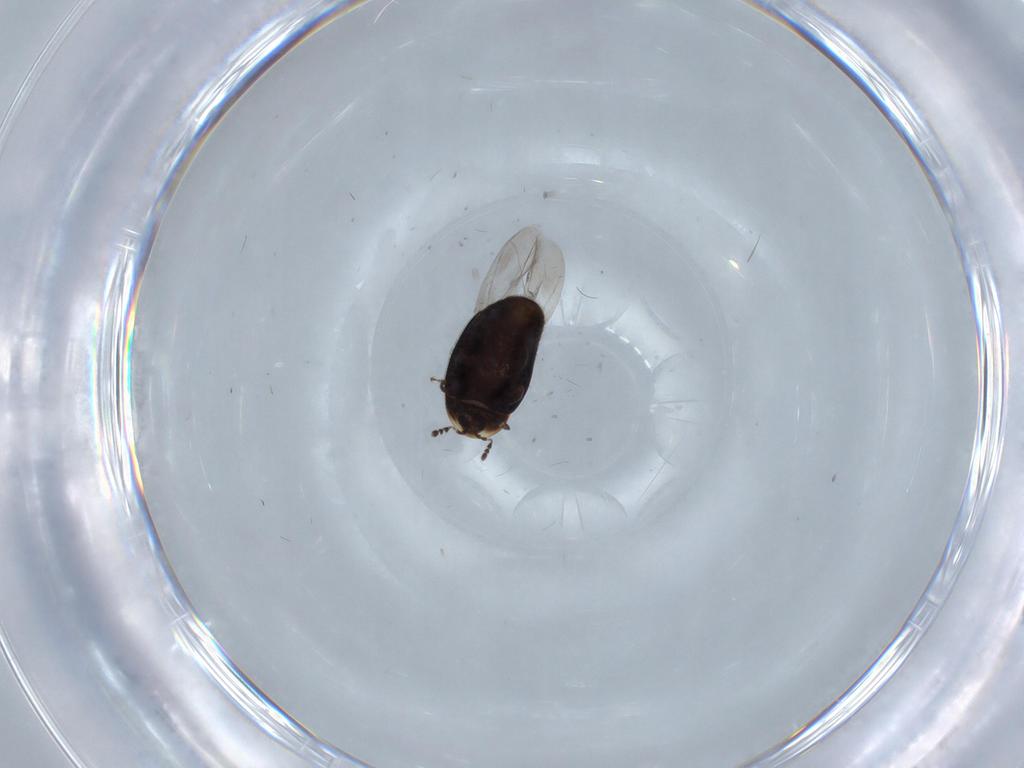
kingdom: Animalia
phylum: Arthropoda
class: Insecta
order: Coleoptera
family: Corylophidae
